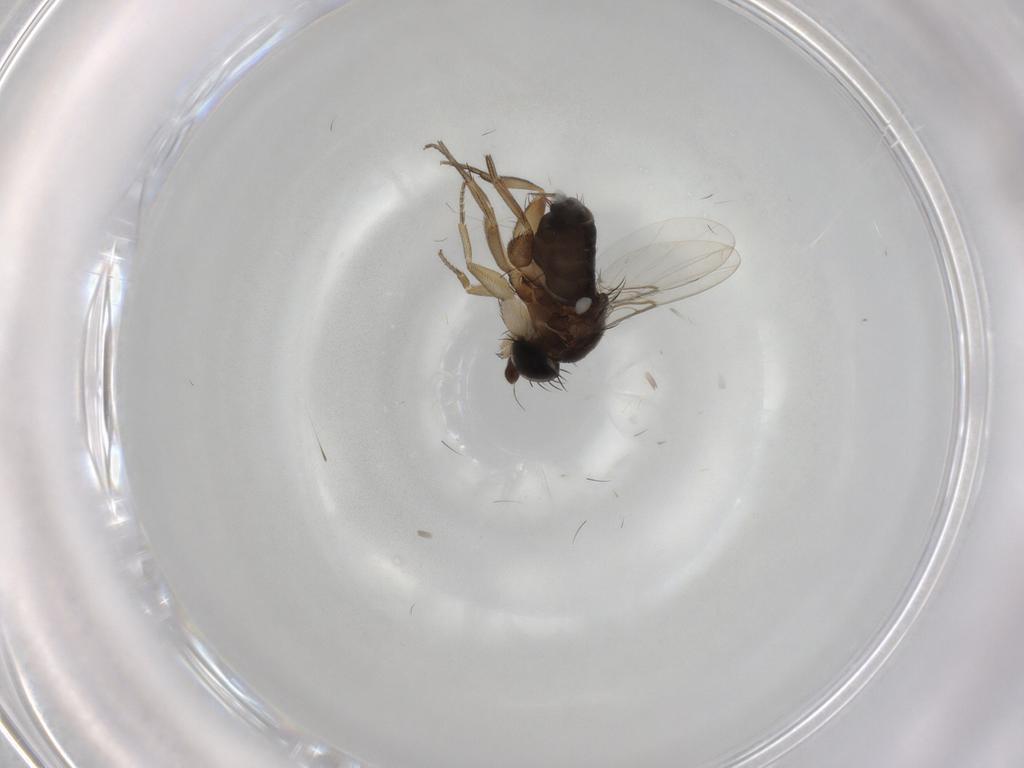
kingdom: Animalia
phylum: Arthropoda
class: Insecta
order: Diptera
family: Phoridae
